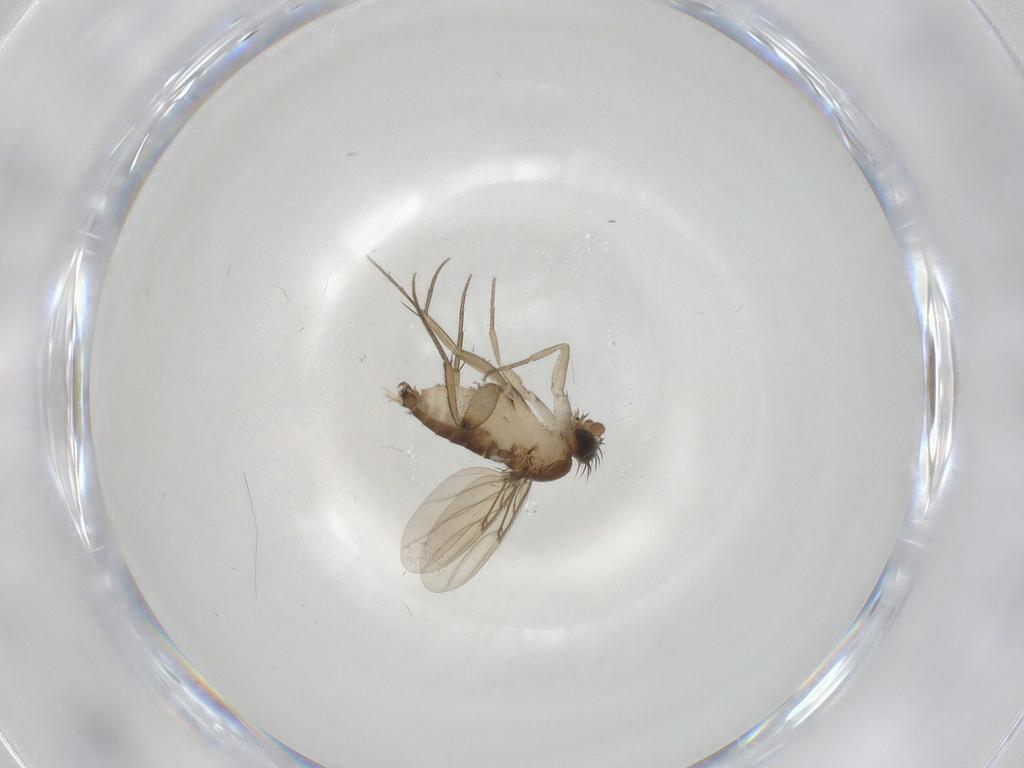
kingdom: Animalia
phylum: Arthropoda
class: Insecta
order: Diptera
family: Phoridae
